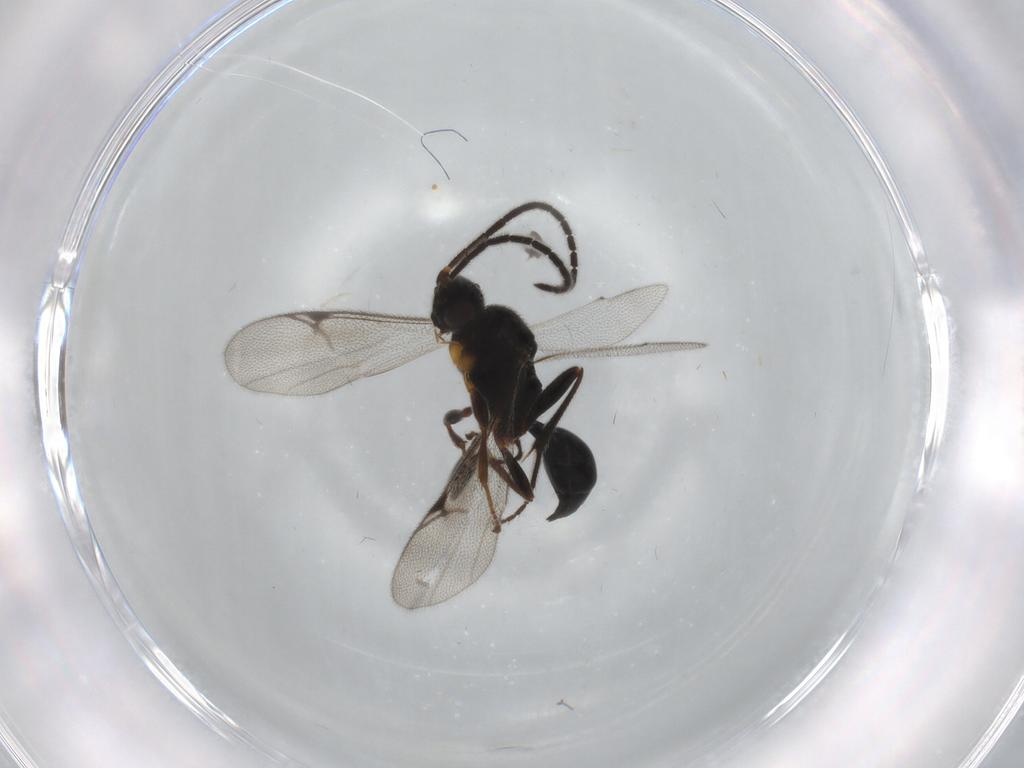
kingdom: Animalia
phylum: Arthropoda
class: Insecta
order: Hymenoptera
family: Proctotrupidae
